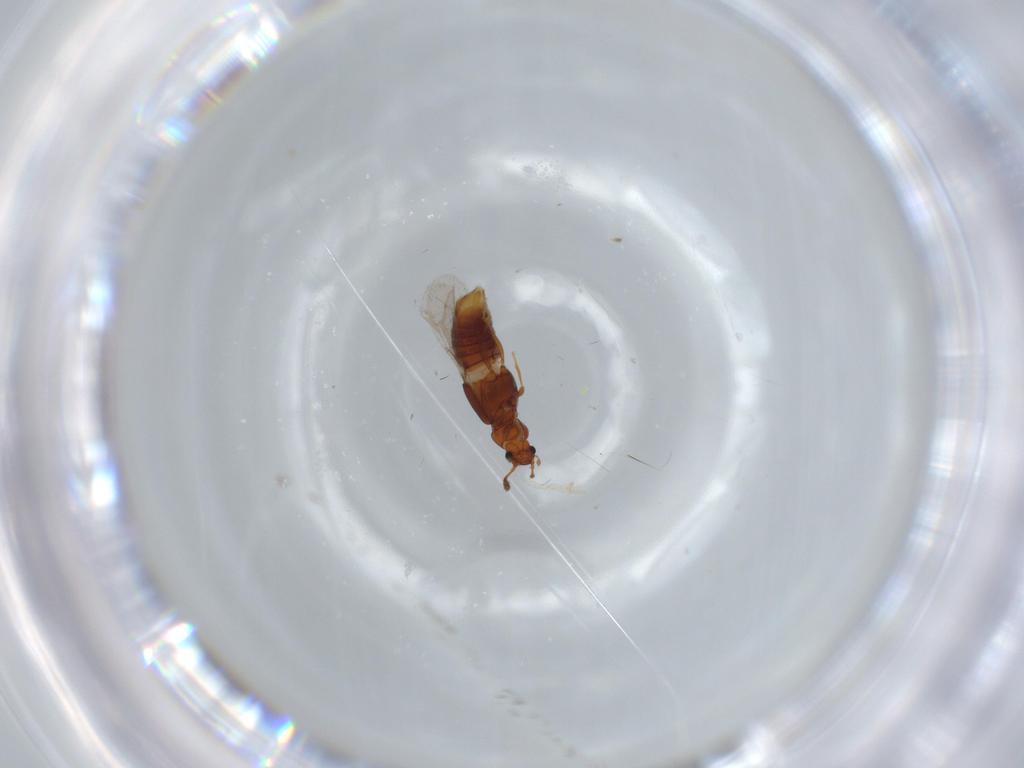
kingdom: Animalia
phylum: Arthropoda
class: Insecta
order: Coleoptera
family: Staphylinidae
